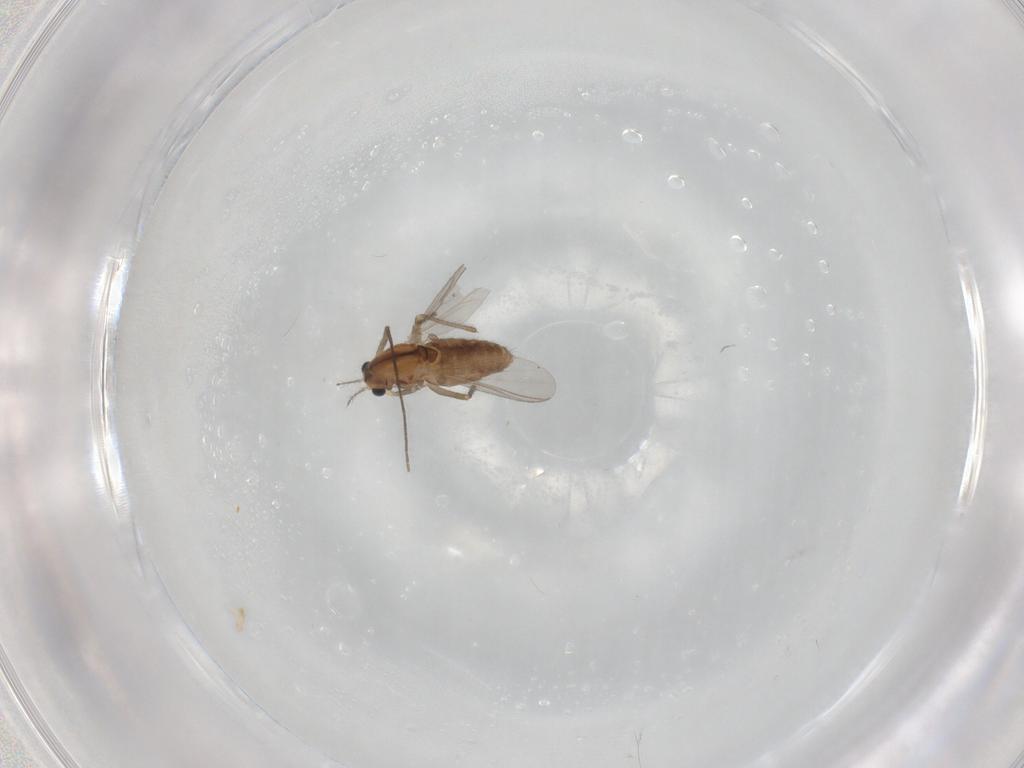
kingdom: Animalia
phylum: Arthropoda
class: Insecta
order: Diptera
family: Chironomidae
